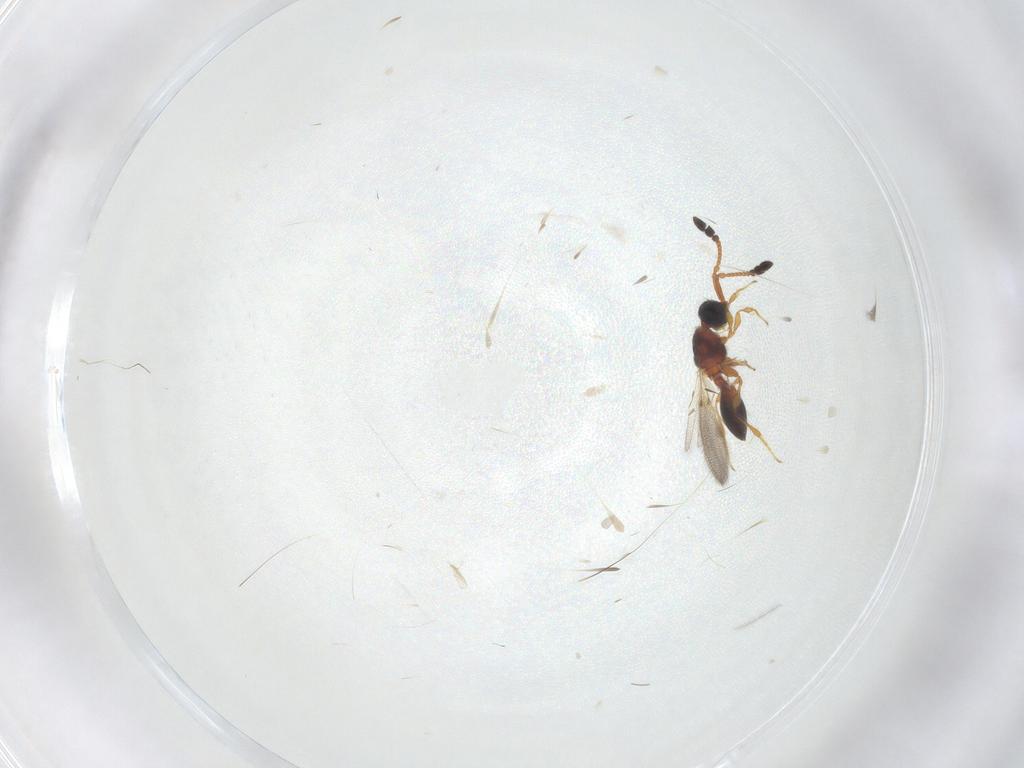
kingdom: Animalia
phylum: Arthropoda
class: Insecta
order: Hymenoptera
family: Diapriidae
